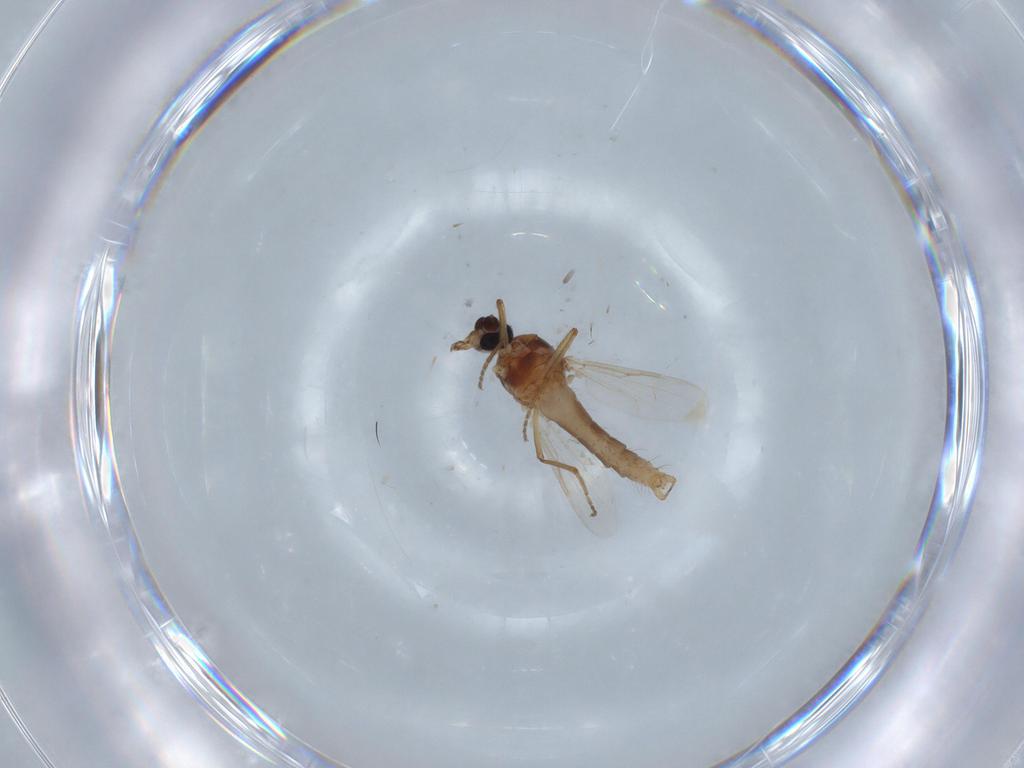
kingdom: Animalia
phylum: Arthropoda
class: Insecta
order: Diptera
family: Ceratopogonidae
